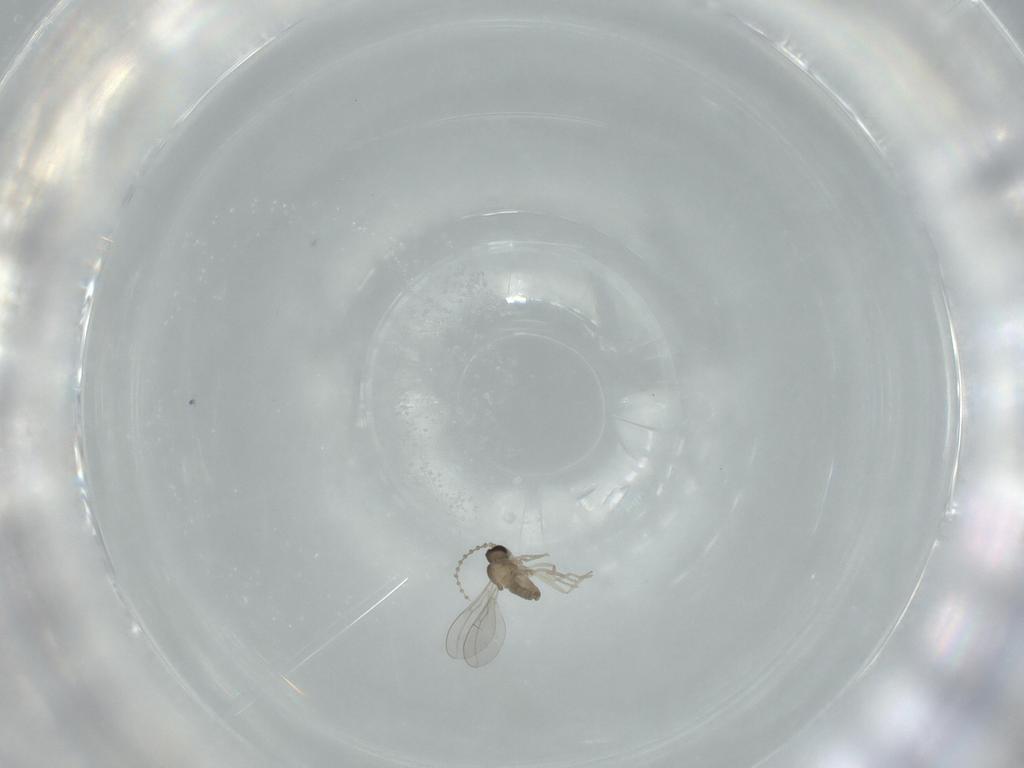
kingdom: Animalia
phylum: Arthropoda
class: Insecta
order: Diptera
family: Cecidomyiidae
